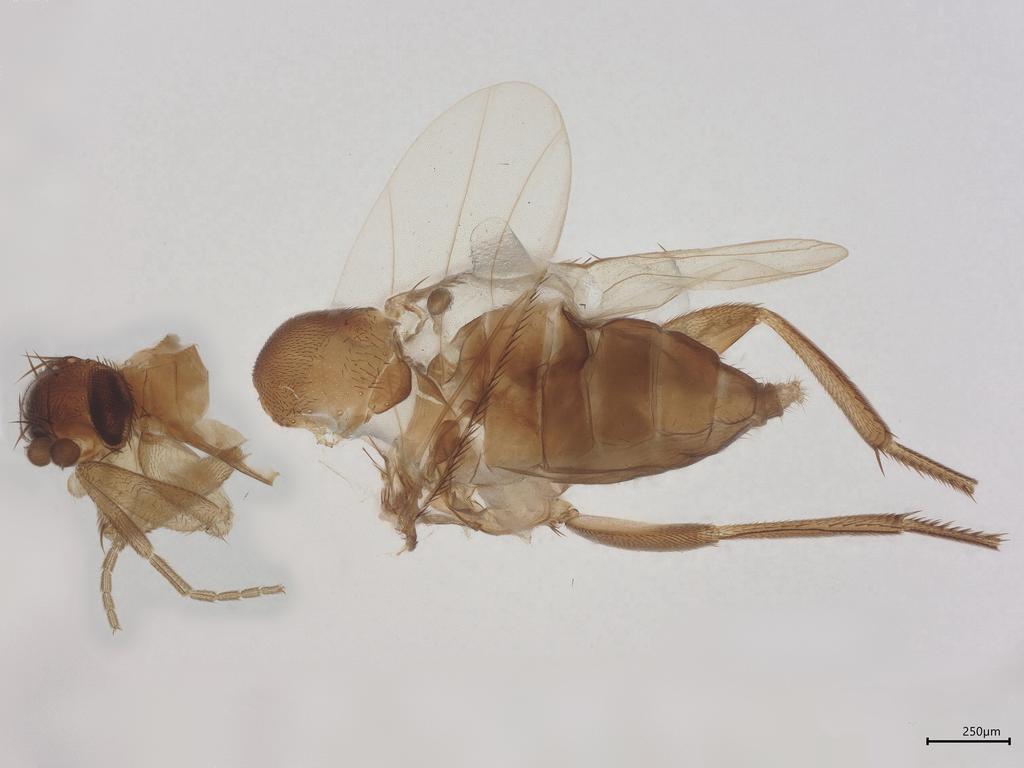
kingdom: Animalia
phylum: Arthropoda
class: Insecta
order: Diptera
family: Phoridae
